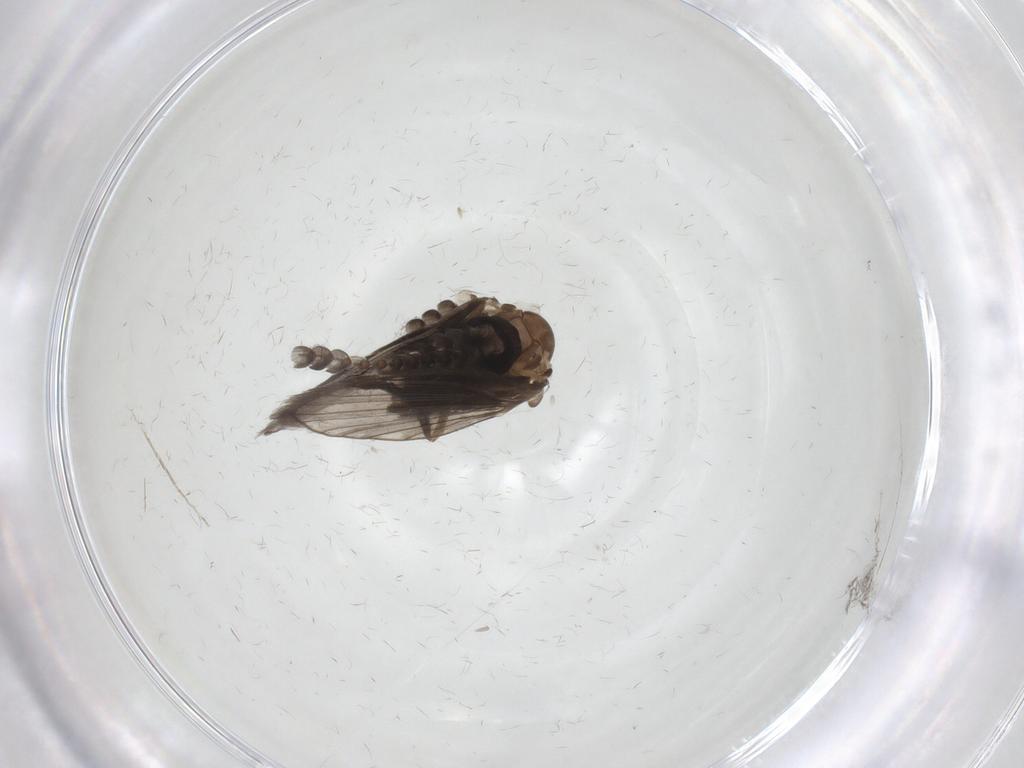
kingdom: Animalia
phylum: Arthropoda
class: Insecta
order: Diptera
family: Psychodidae
